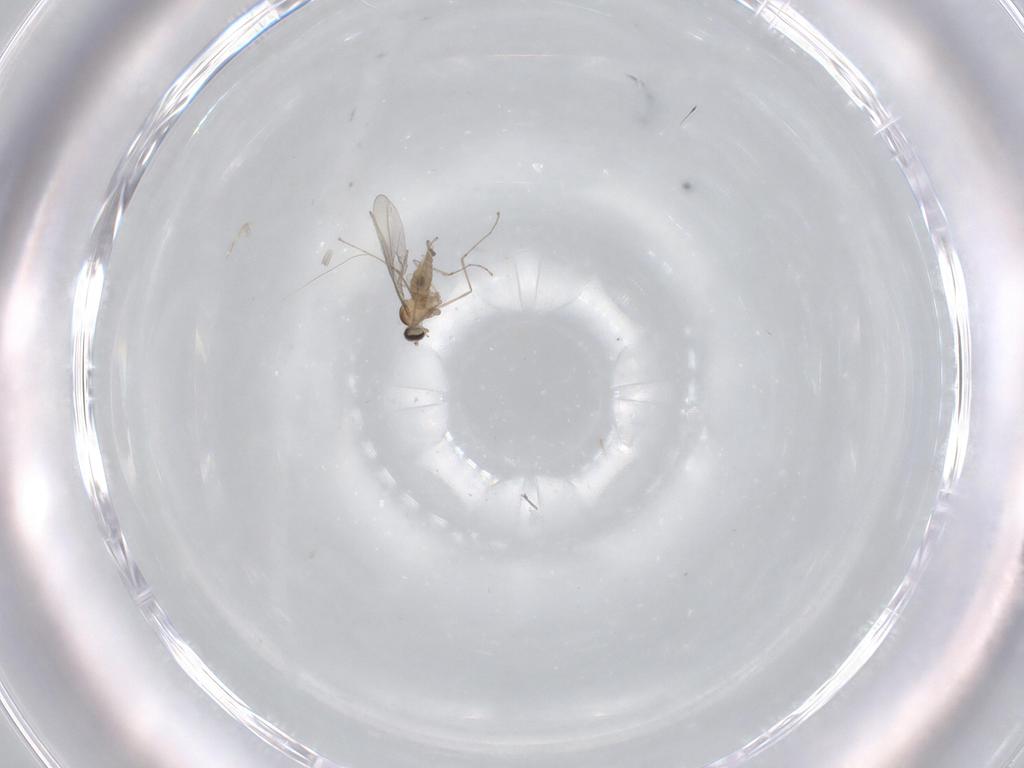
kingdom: Animalia
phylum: Arthropoda
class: Insecta
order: Diptera
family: Cecidomyiidae
